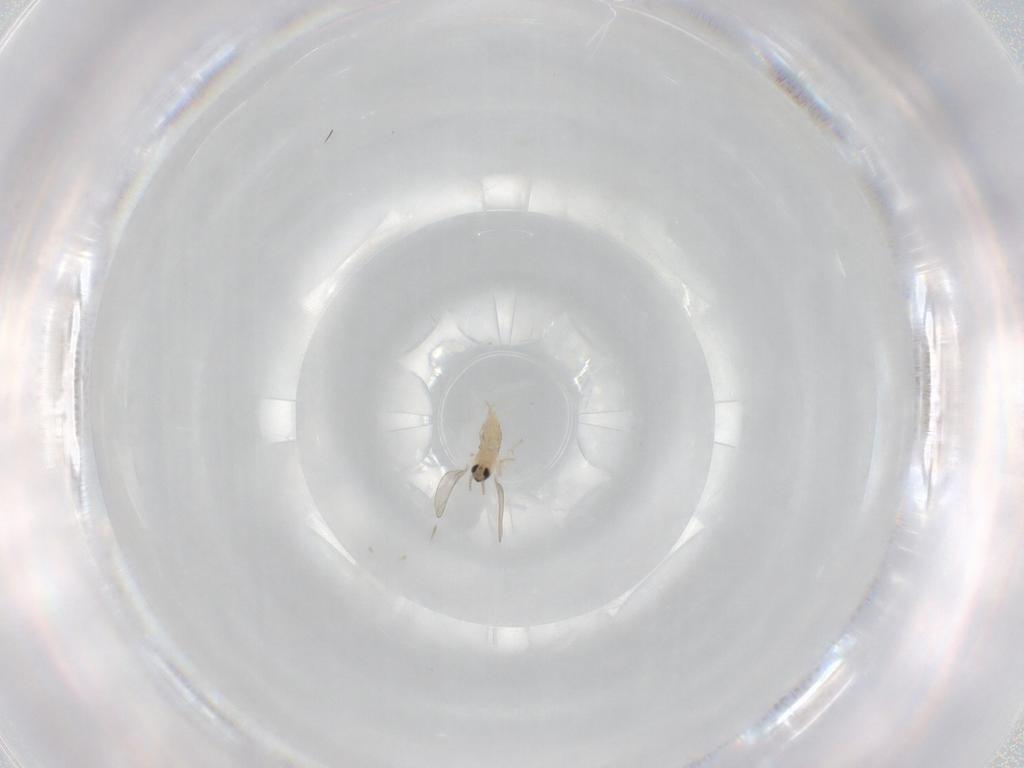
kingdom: Animalia
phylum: Arthropoda
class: Insecta
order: Diptera
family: Cecidomyiidae
